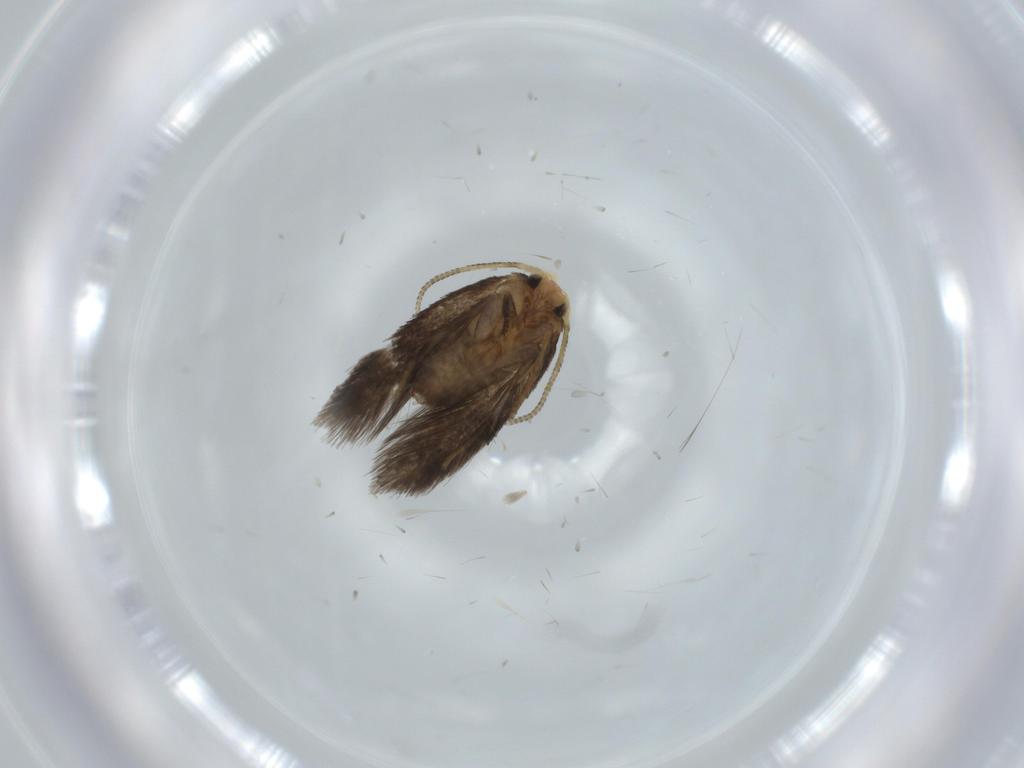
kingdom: Animalia
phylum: Arthropoda
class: Insecta
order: Lepidoptera
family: Nepticulidae
